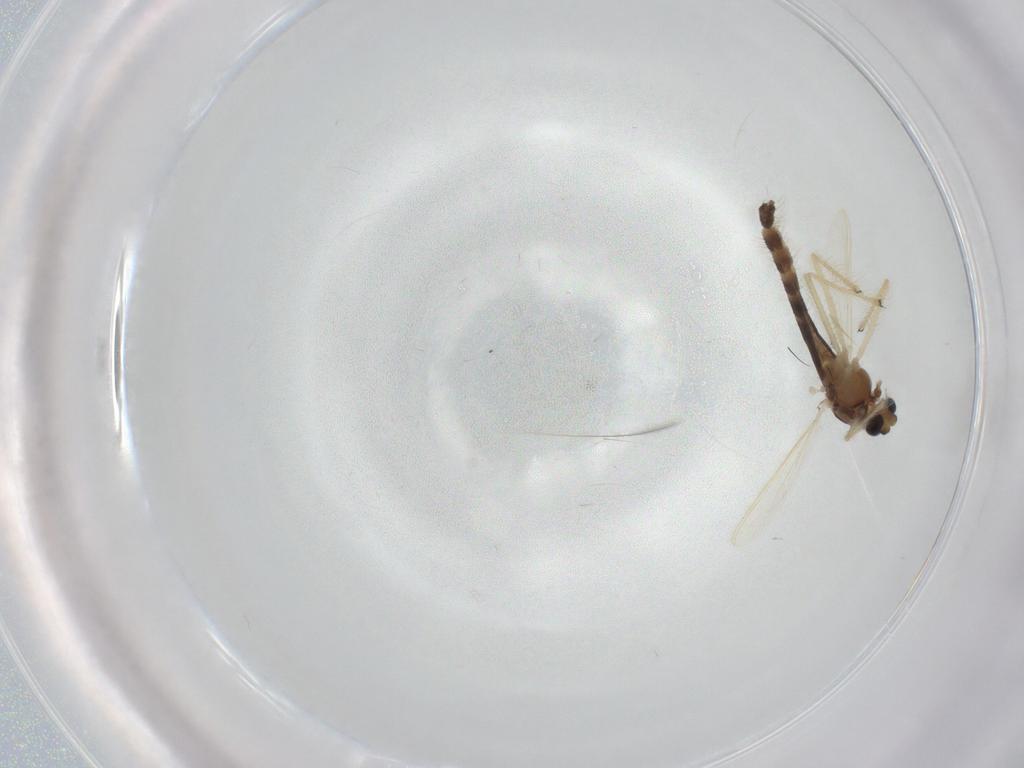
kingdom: Animalia
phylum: Arthropoda
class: Insecta
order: Diptera
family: Chironomidae
